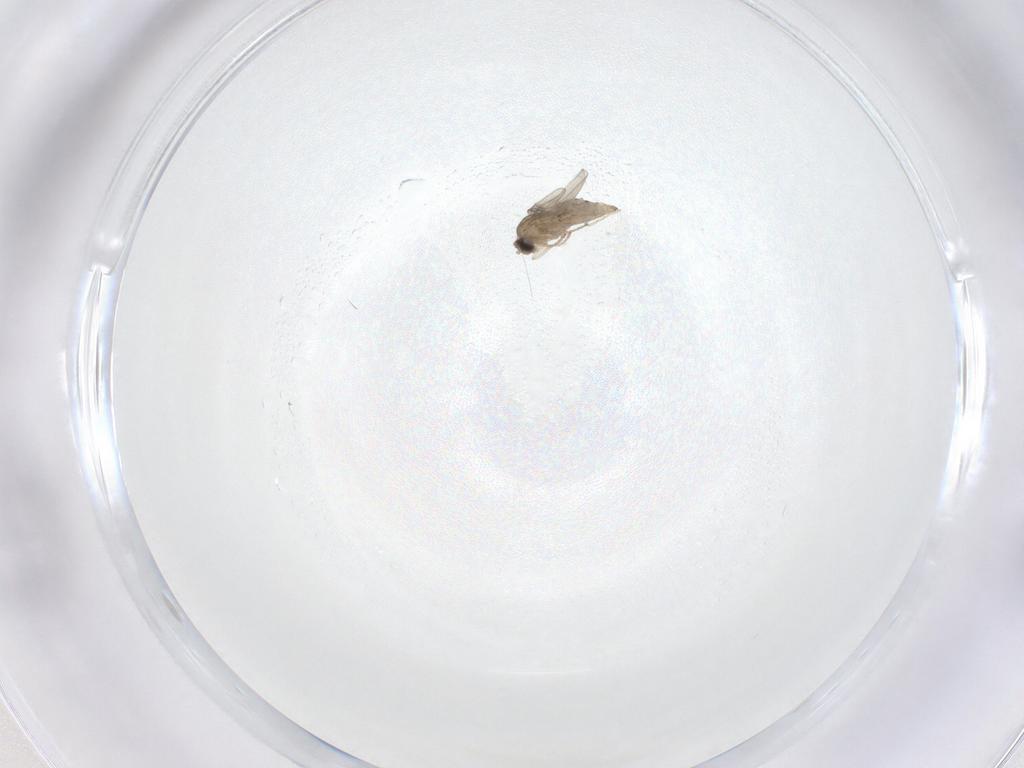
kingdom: Animalia
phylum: Arthropoda
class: Insecta
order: Diptera
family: Cecidomyiidae
